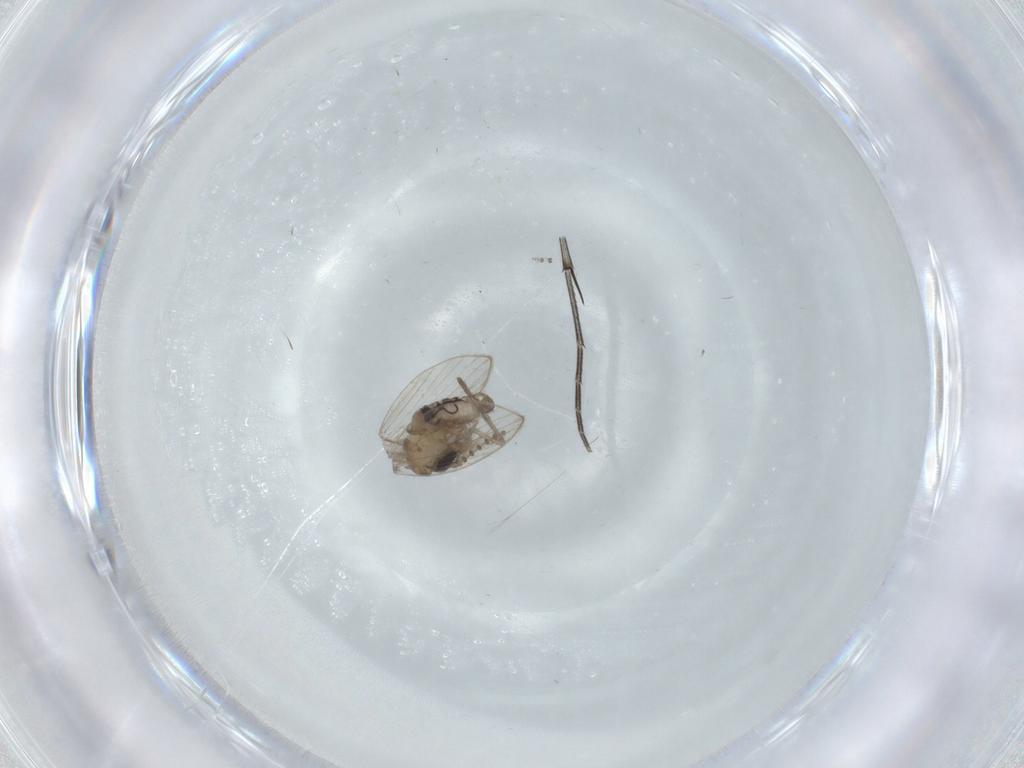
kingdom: Animalia
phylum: Arthropoda
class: Insecta
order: Diptera
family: Psychodidae
